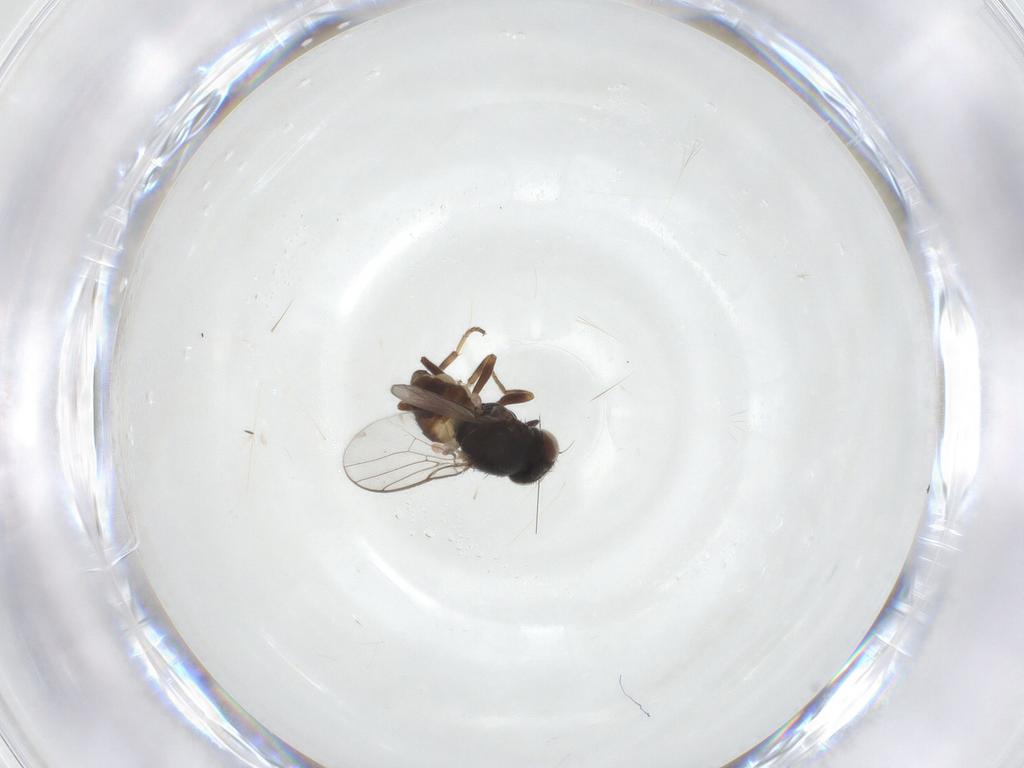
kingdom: Animalia
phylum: Arthropoda
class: Insecta
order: Diptera
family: Chloropidae
